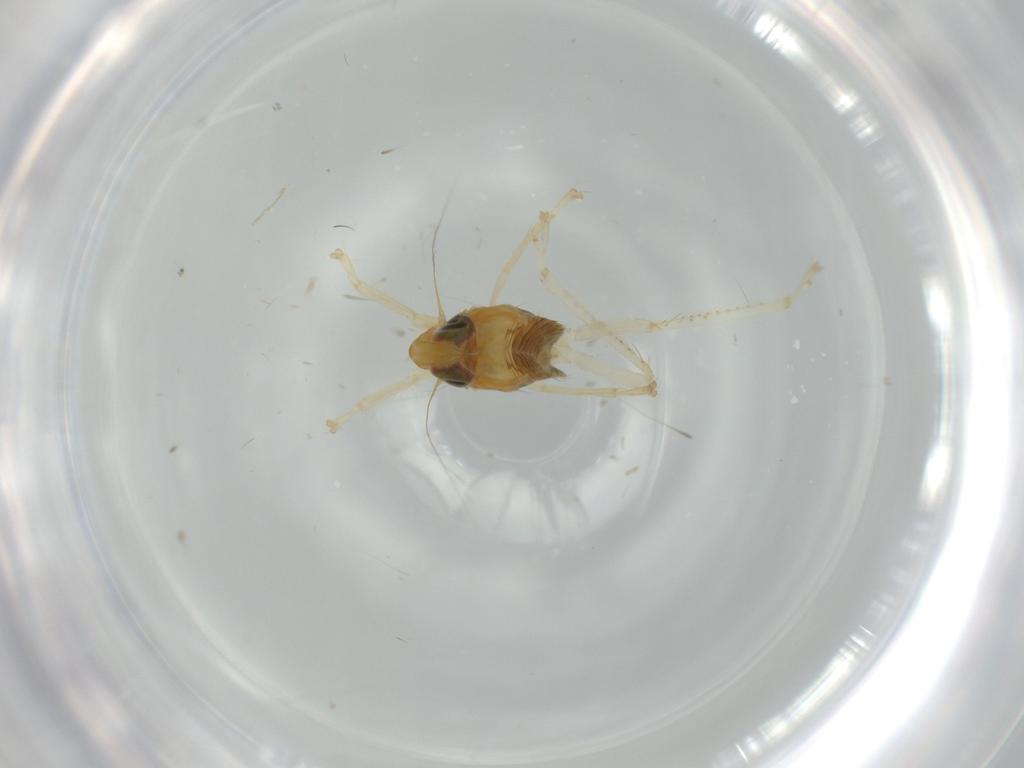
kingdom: Animalia
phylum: Arthropoda
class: Insecta
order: Hemiptera
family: Cicadellidae
